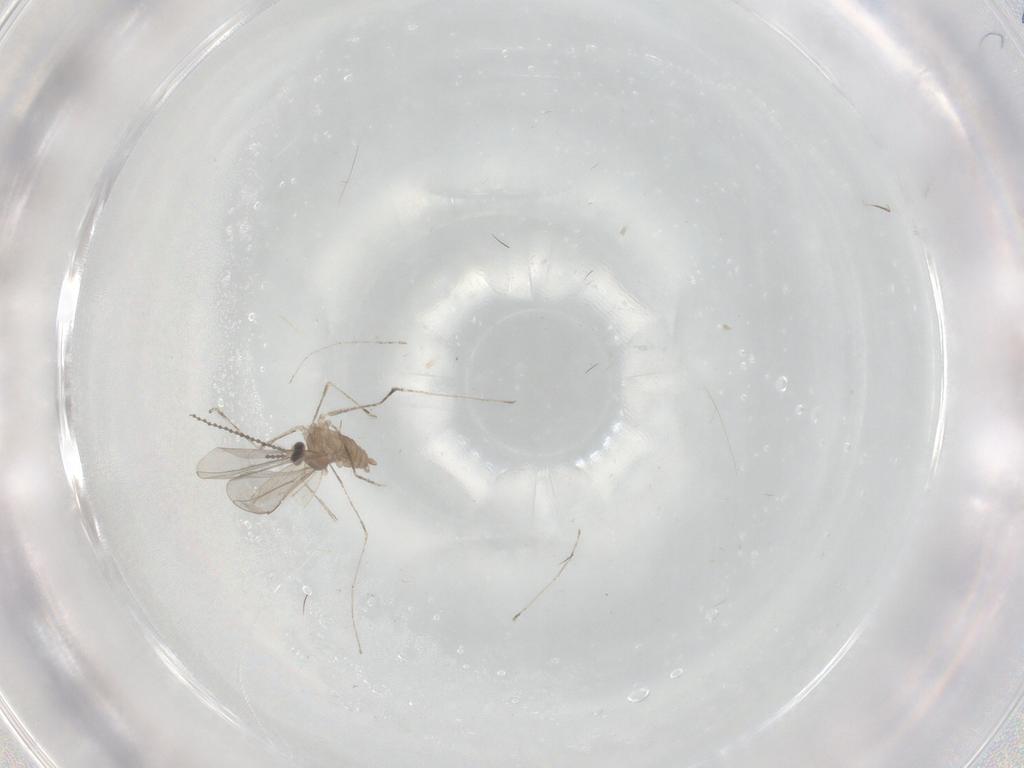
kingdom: Animalia
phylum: Arthropoda
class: Insecta
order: Diptera
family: Cecidomyiidae
